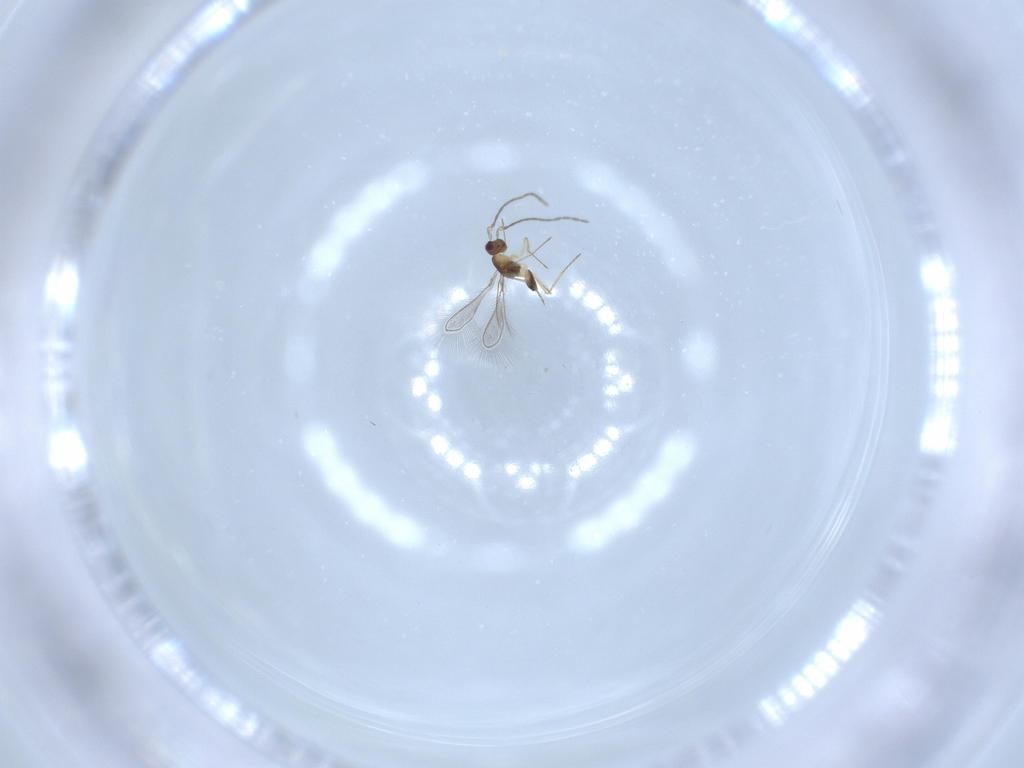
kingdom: Animalia
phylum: Arthropoda
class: Insecta
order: Hymenoptera
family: Mymaridae
